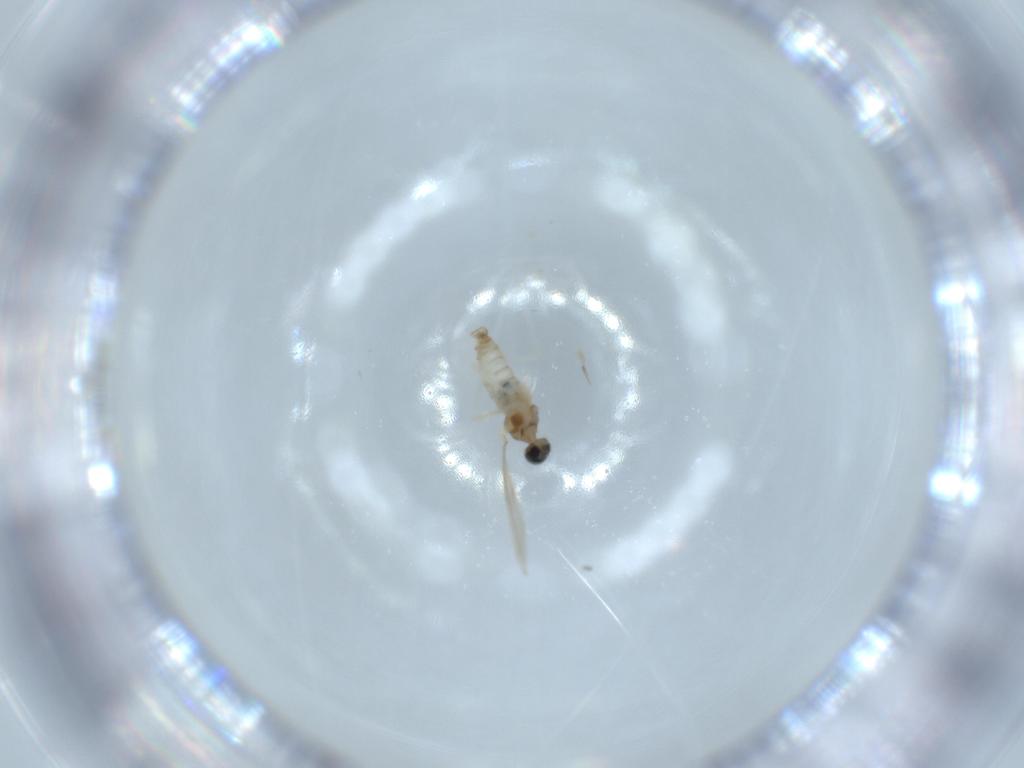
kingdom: Animalia
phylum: Arthropoda
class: Insecta
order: Diptera
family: Cecidomyiidae
